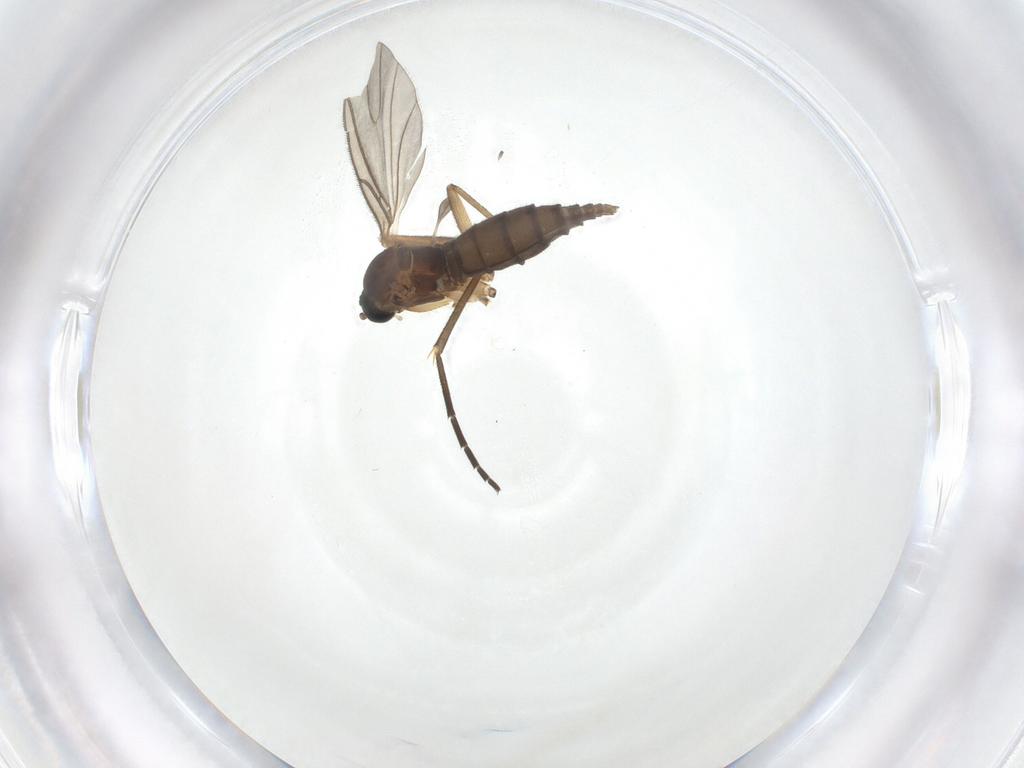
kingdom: Animalia
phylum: Arthropoda
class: Insecta
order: Diptera
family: Sciaridae
